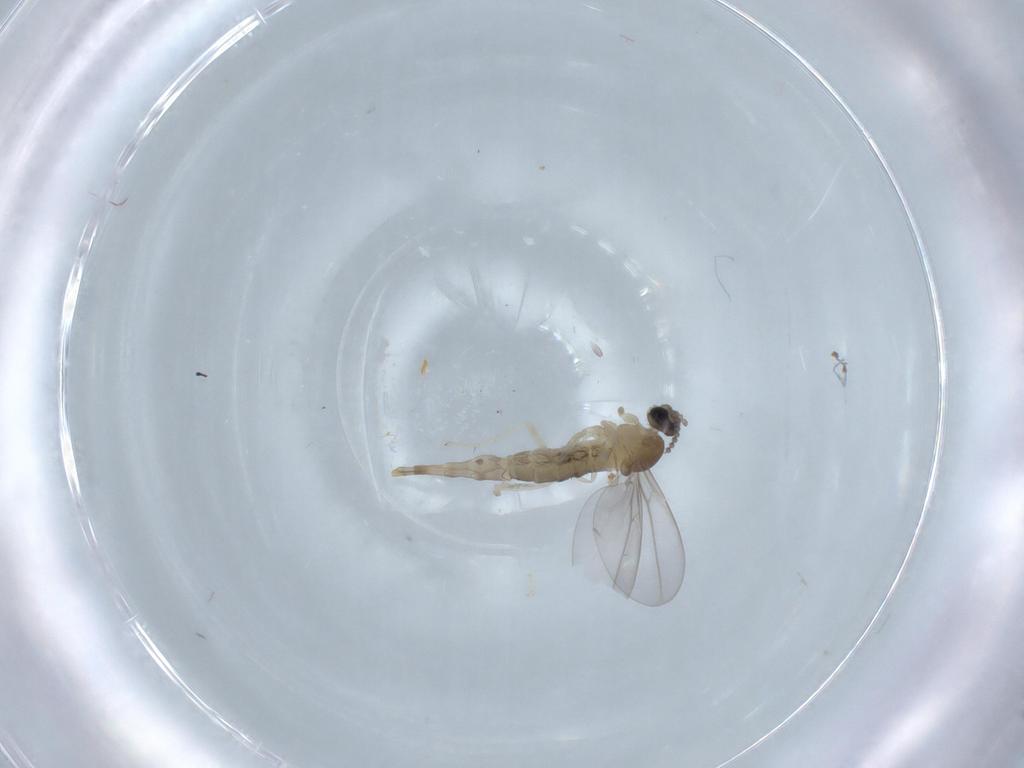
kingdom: Animalia
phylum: Arthropoda
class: Insecta
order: Diptera
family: Cecidomyiidae
